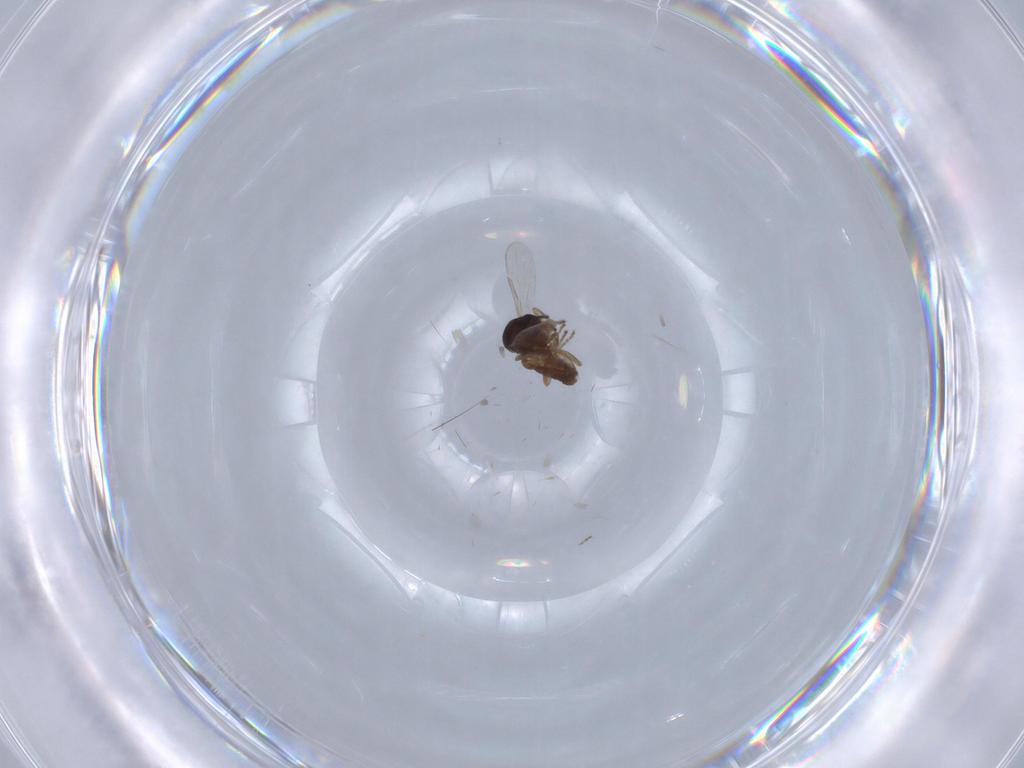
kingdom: Animalia
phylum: Arthropoda
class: Insecta
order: Diptera
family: Ceratopogonidae
